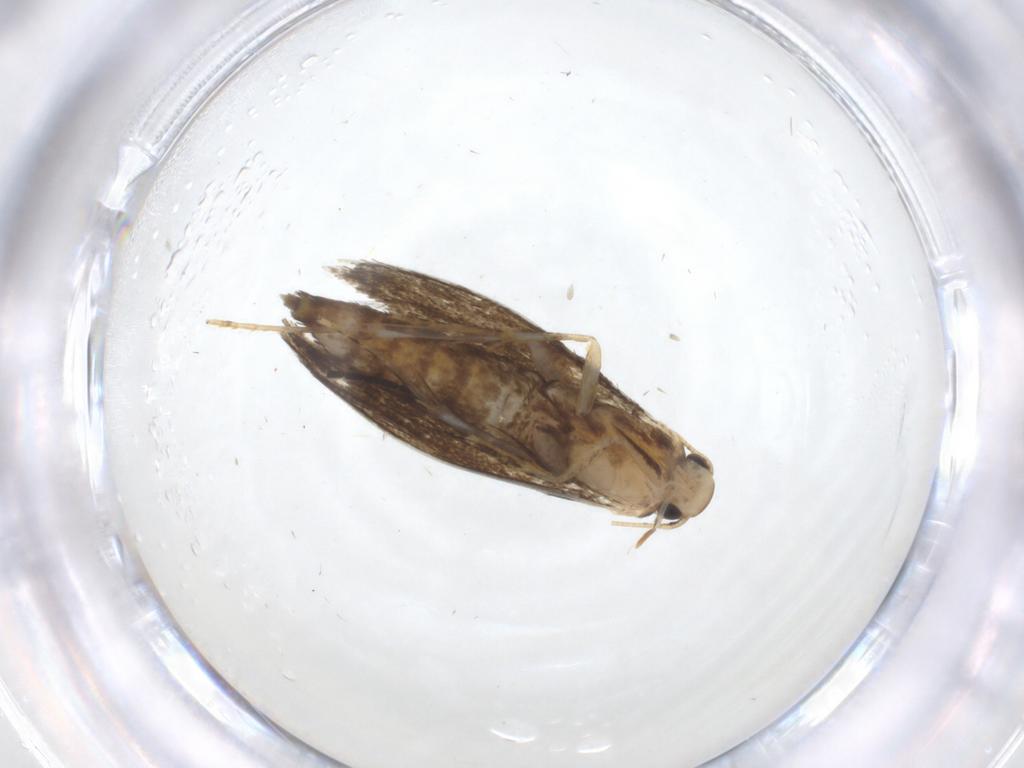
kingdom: Animalia
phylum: Arthropoda
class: Insecta
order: Lepidoptera
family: Tineidae
